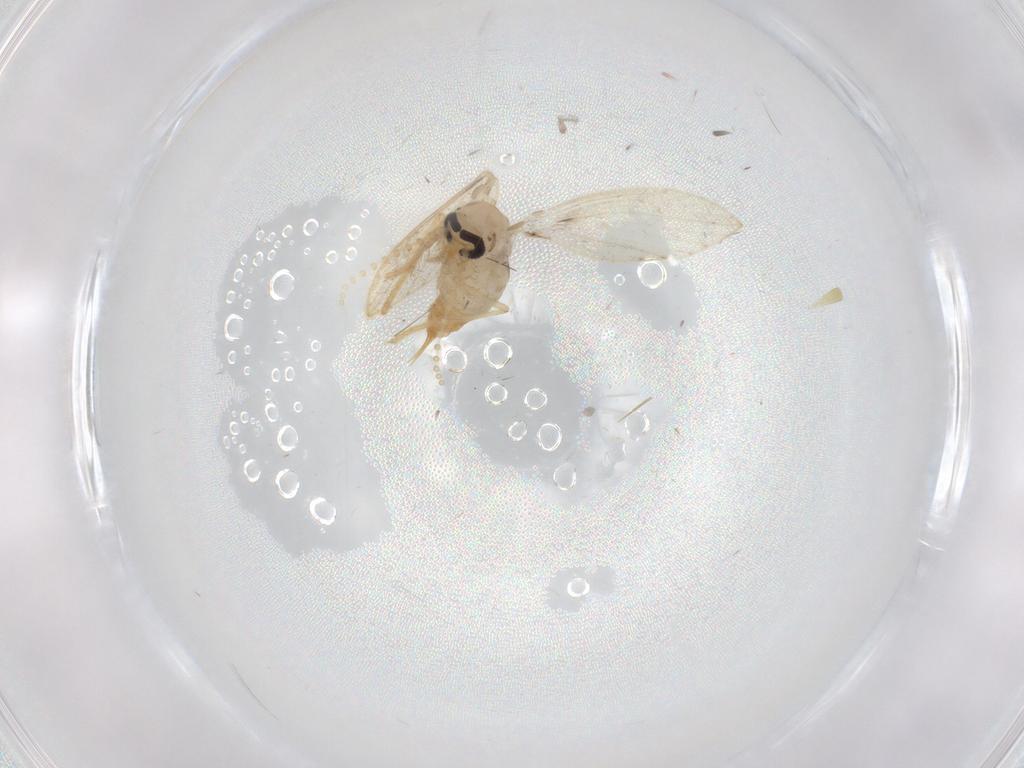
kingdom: Animalia
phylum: Arthropoda
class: Insecta
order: Diptera
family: Psychodidae
